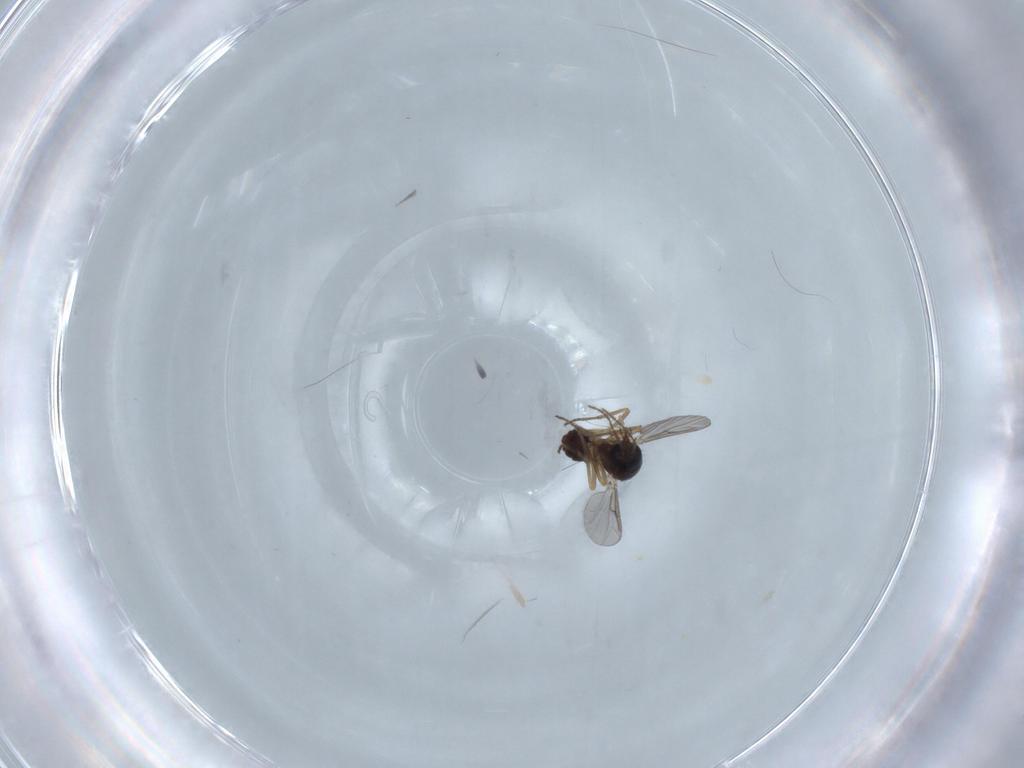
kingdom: Animalia
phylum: Arthropoda
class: Insecta
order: Diptera
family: Ceratopogonidae
